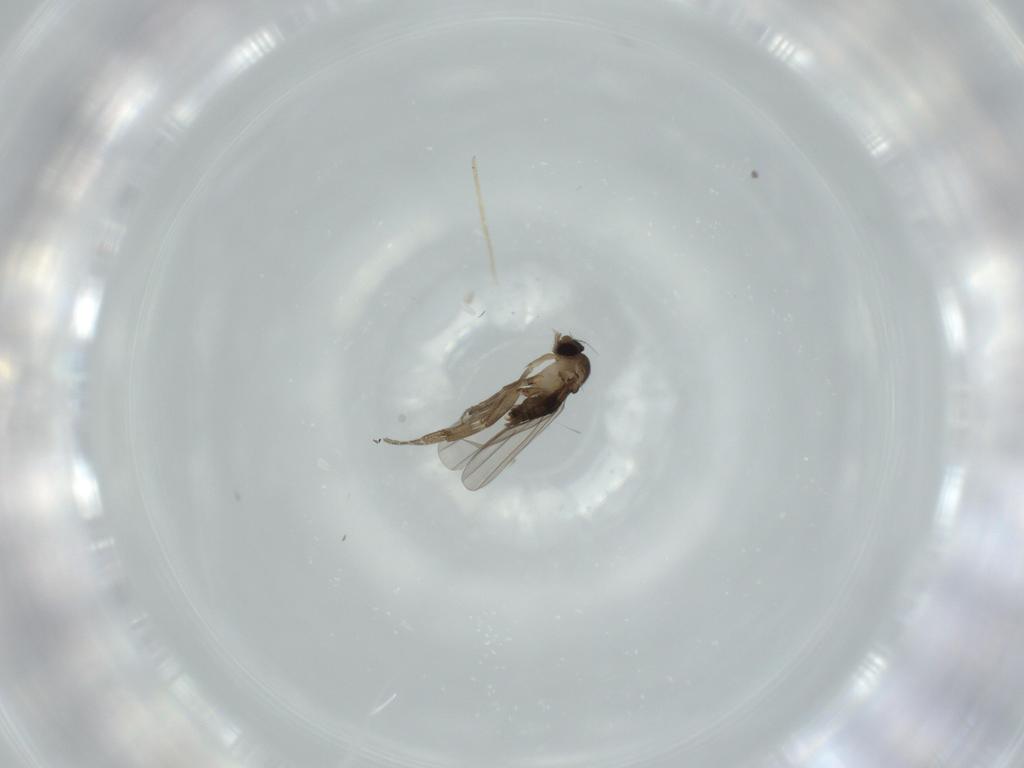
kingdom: Animalia
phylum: Arthropoda
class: Insecta
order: Diptera
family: Phoridae
